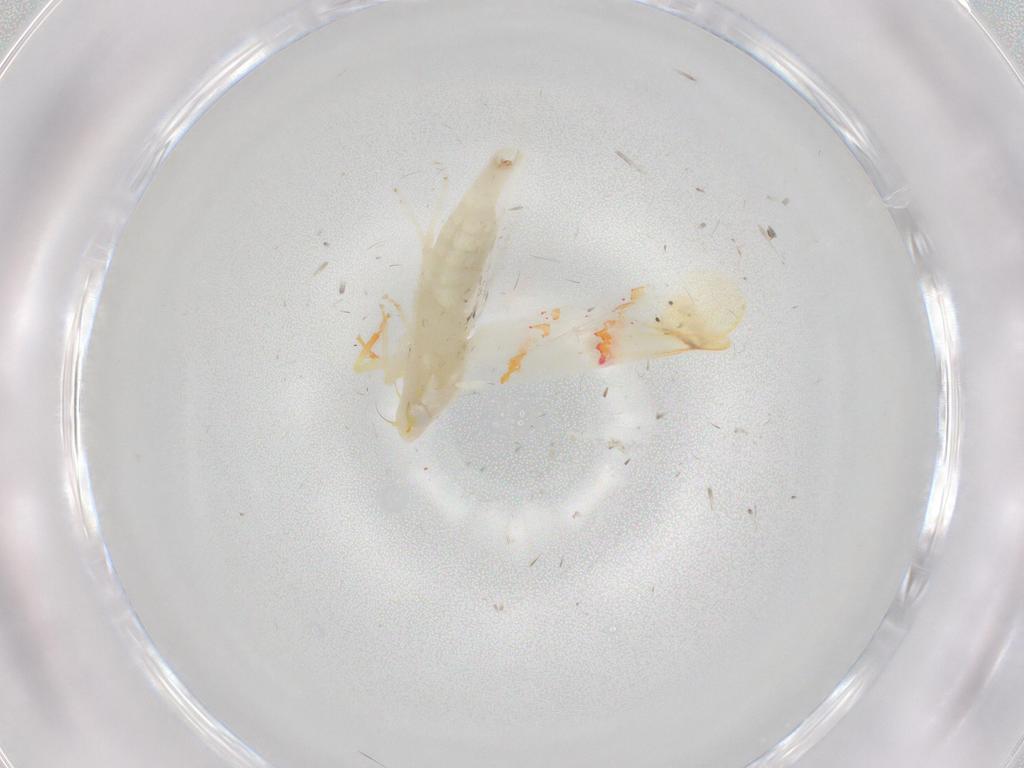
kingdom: Animalia
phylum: Arthropoda
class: Insecta
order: Hemiptera
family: Cicadellidae
